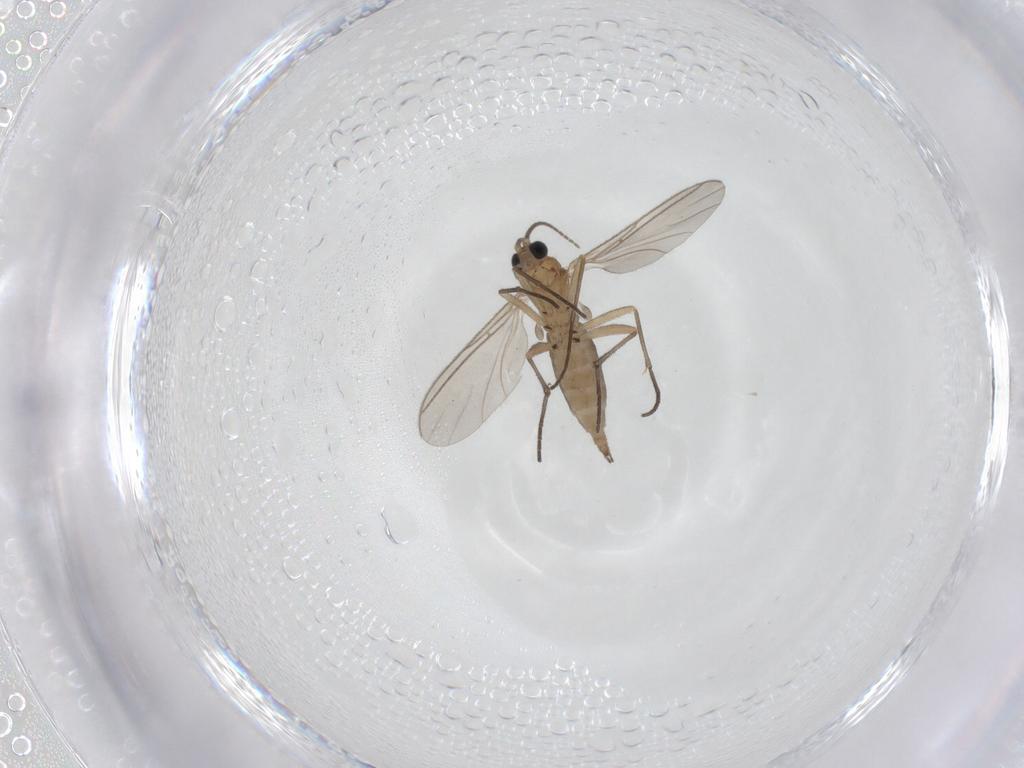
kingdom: Animalia
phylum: Arthropoda
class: Insecta
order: Diptera
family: Sciaridae
